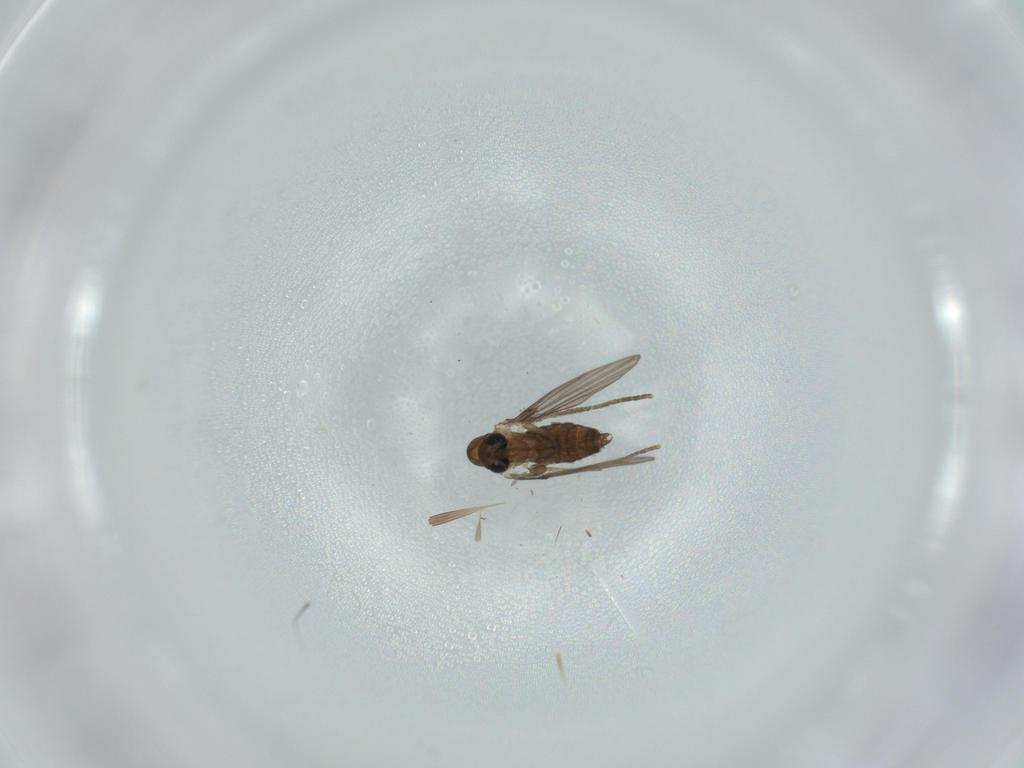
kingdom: Animalia
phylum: Arthropoda
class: Insecta
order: Diptera
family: Psychodidae
